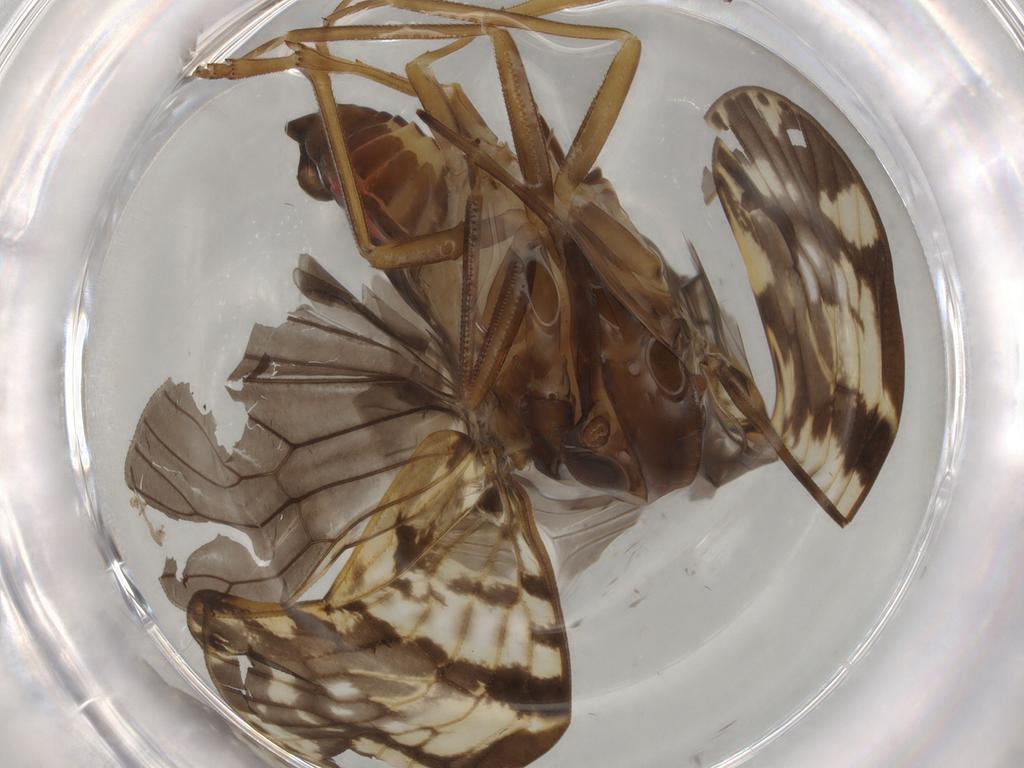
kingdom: Animalia
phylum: Arthropoda
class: Insecta
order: Hemiptera
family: Cixiidae
